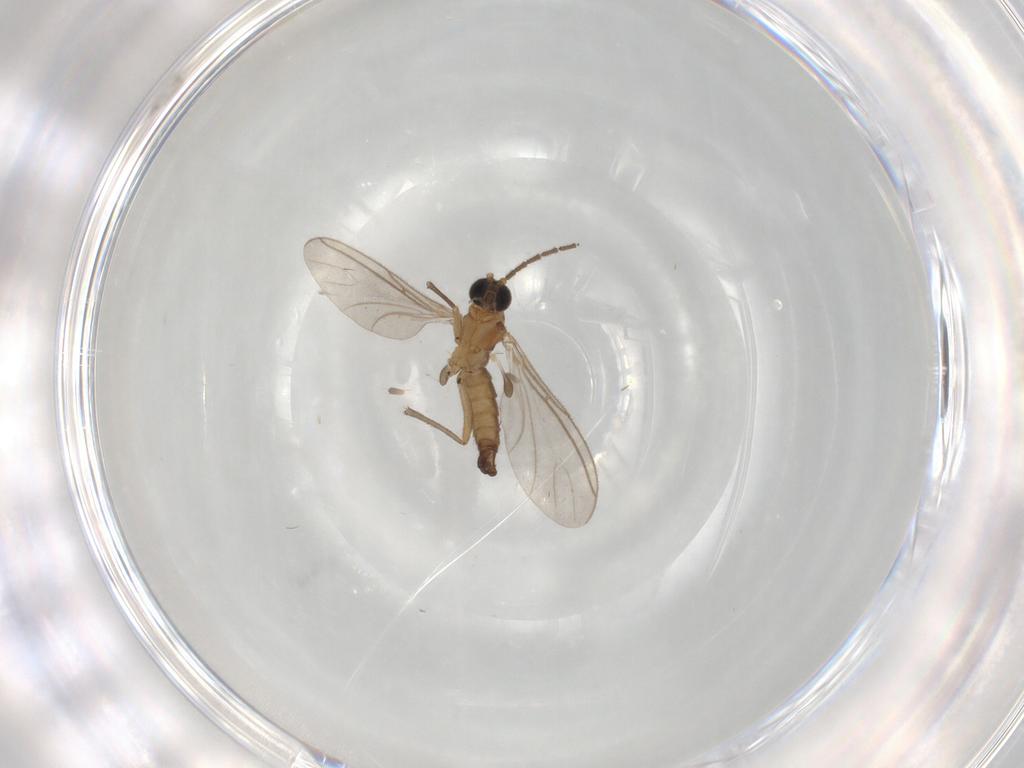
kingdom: Animalia
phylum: Arthropoda
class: Insecta
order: Diptera
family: Sciaridae
